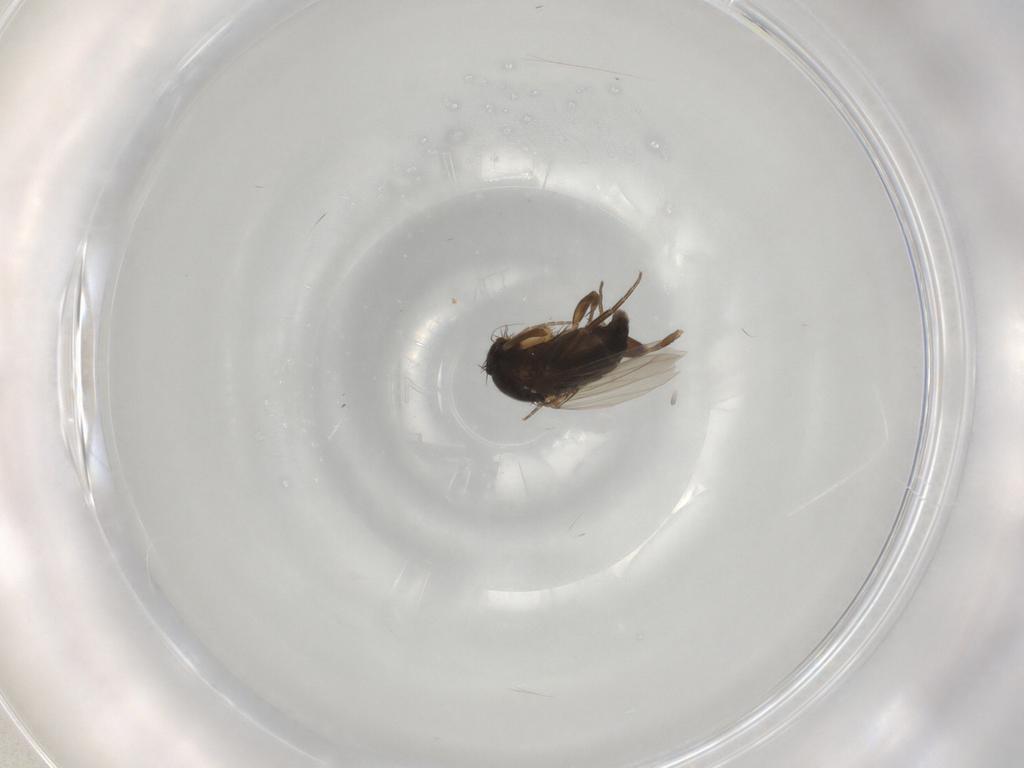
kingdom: Animalia
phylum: Arthropoda
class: Insecta
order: Diptera
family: Phoridae
